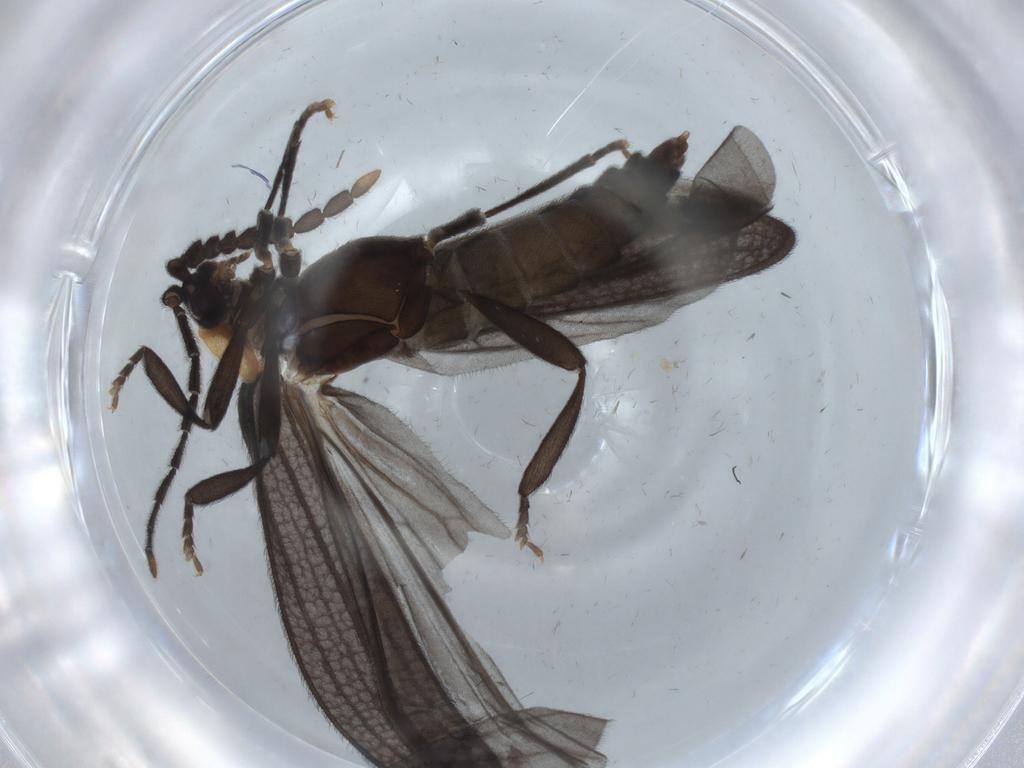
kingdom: Animalia
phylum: Arthropoda
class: Insecta
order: Coleoptera
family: Lycidae
